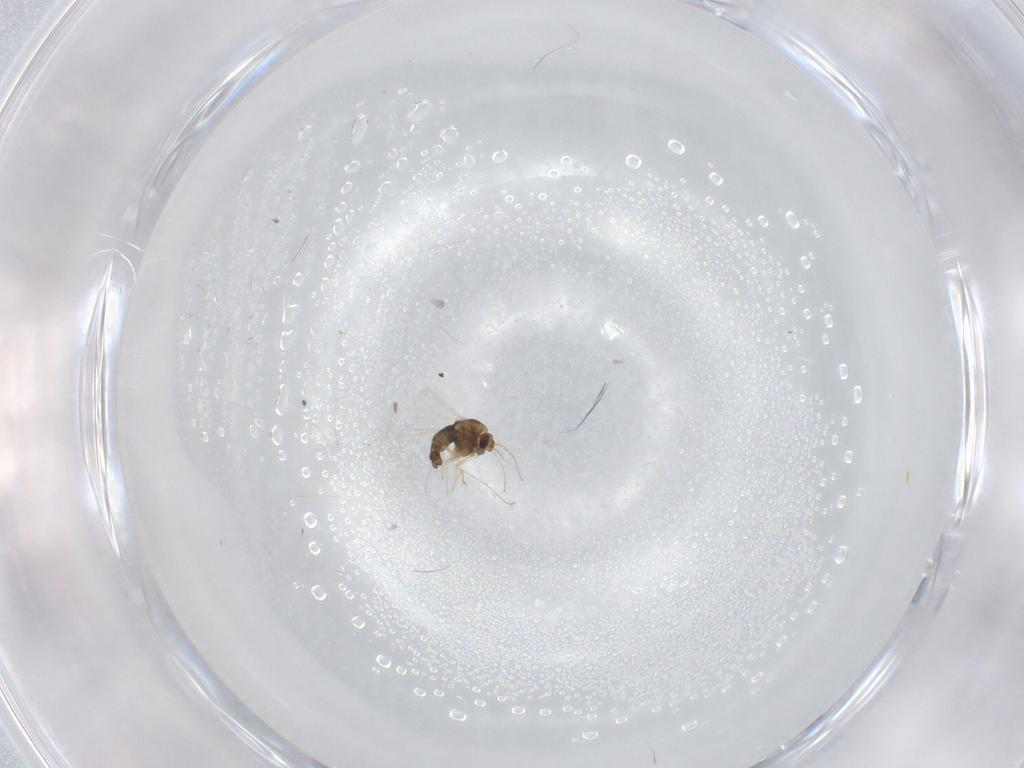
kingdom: Animalia
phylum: Arthropoda
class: Insecta
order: Diptera
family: Chironomidae
